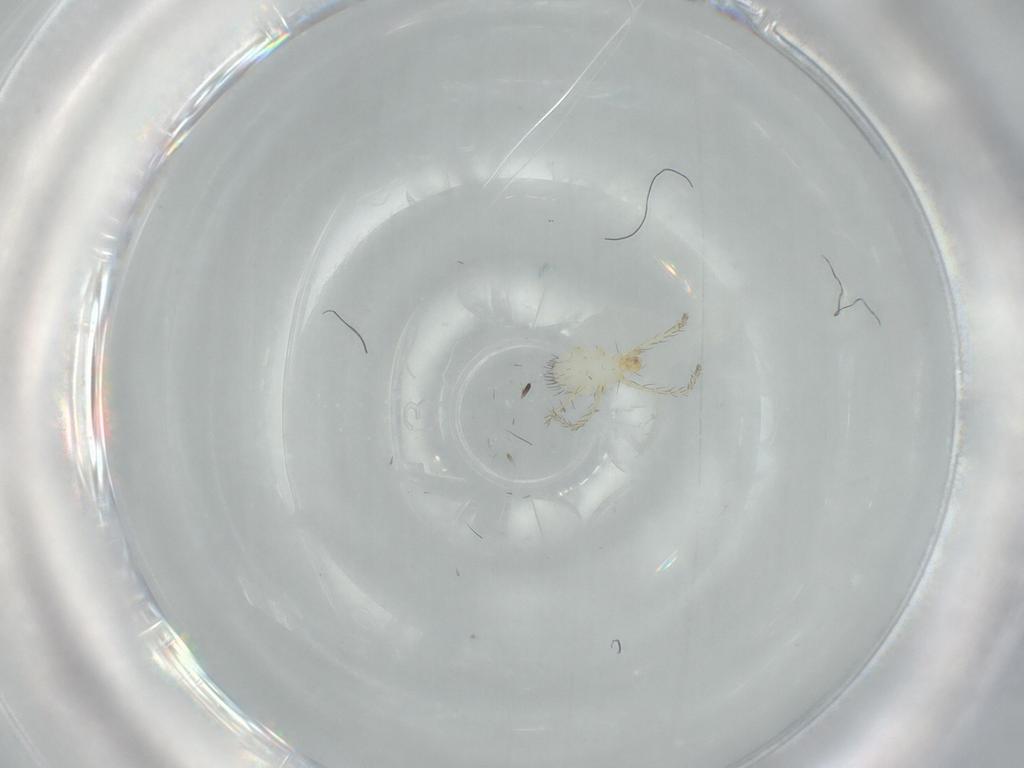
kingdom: Animalia
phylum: Arthropoda
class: Arachnida
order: Trombidiformes
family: Erythraeidae
